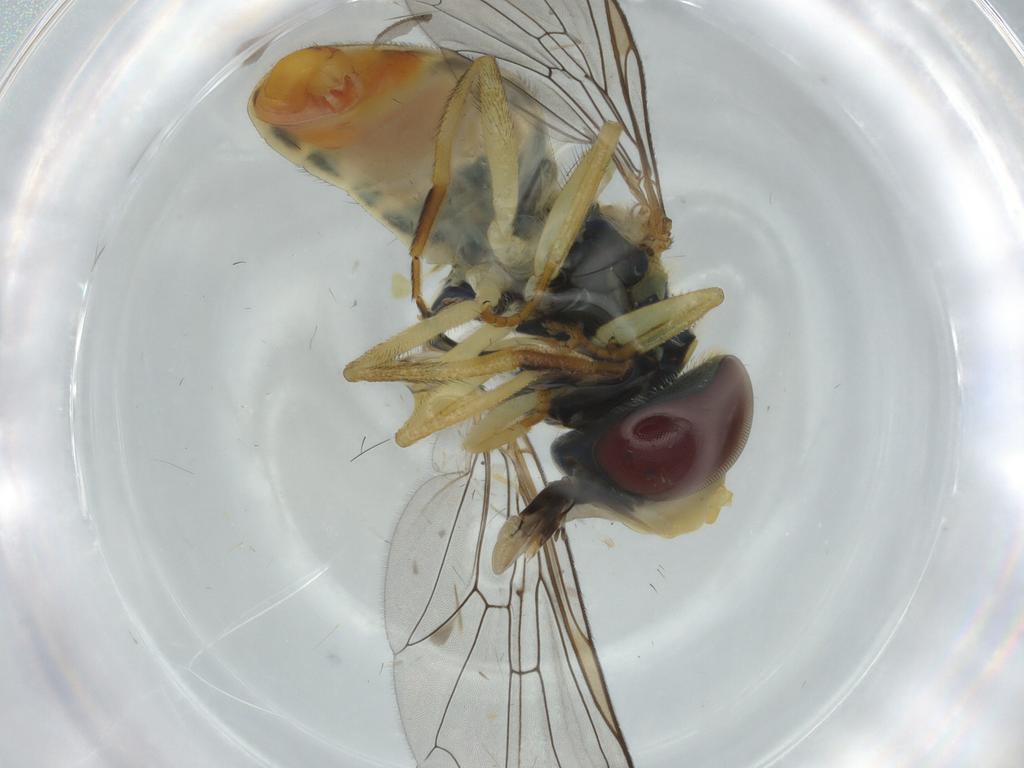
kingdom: Animalia
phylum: Arthropoda
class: Insecta
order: Diptera
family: Syrphidae
